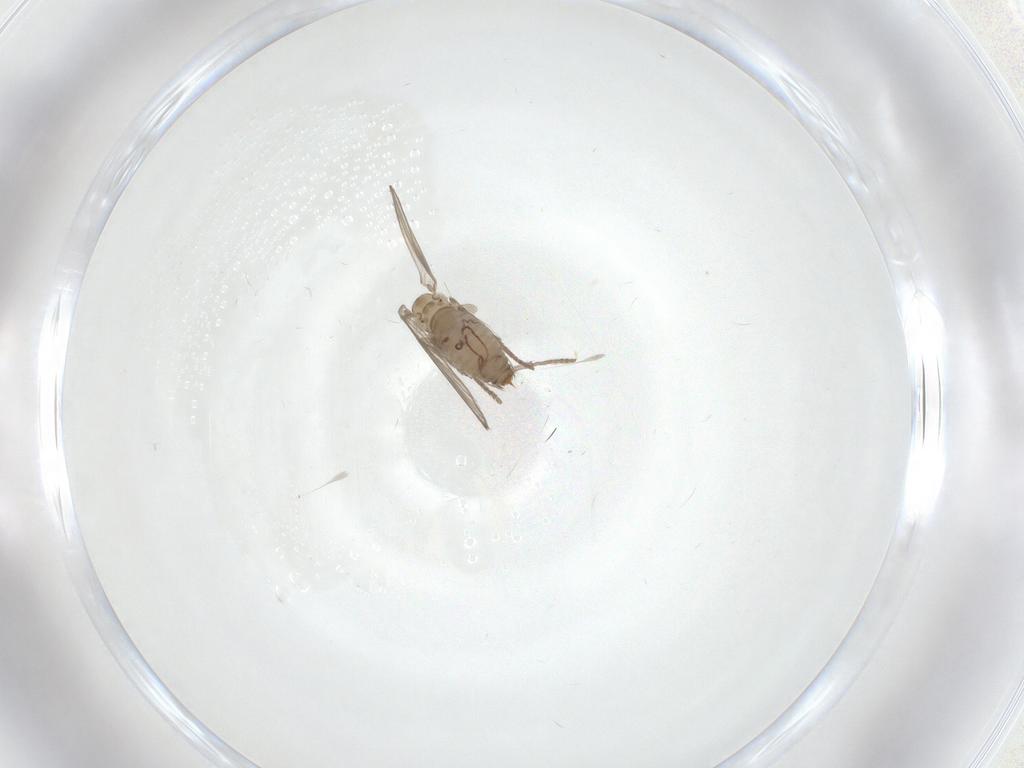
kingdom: Animalia
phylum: Arthropoda
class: Insecta
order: Diptera
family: Psychodidae
